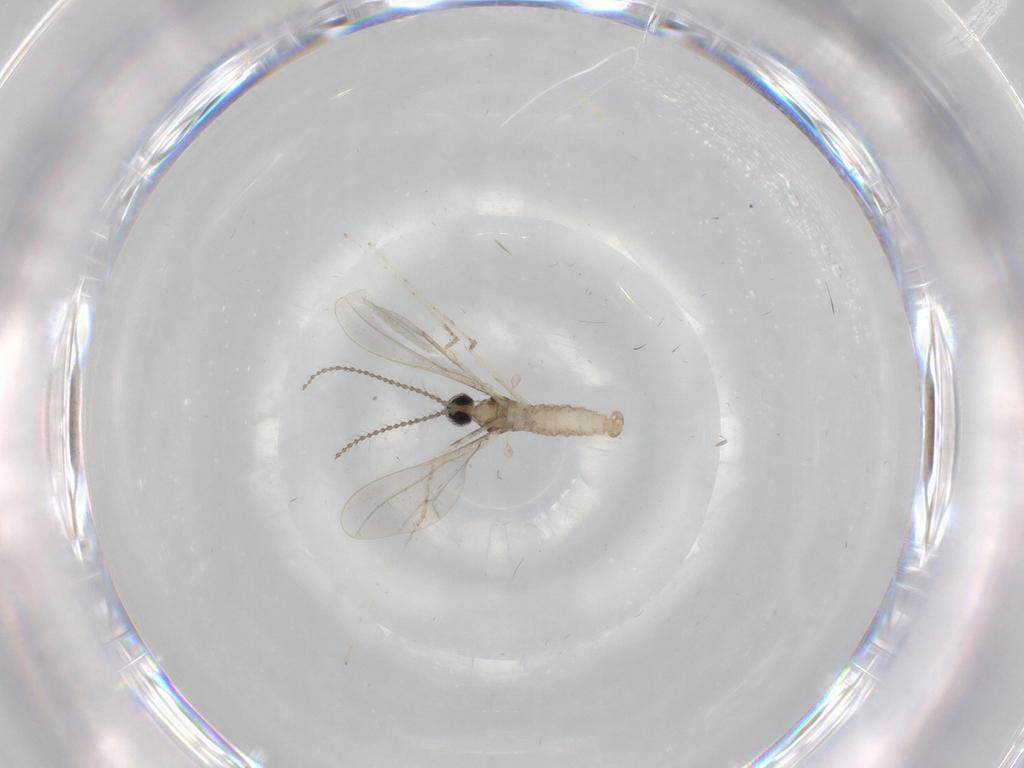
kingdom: Animalia
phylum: Arthropoda
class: Insecta
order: Diptera
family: Cecidomyiidae
